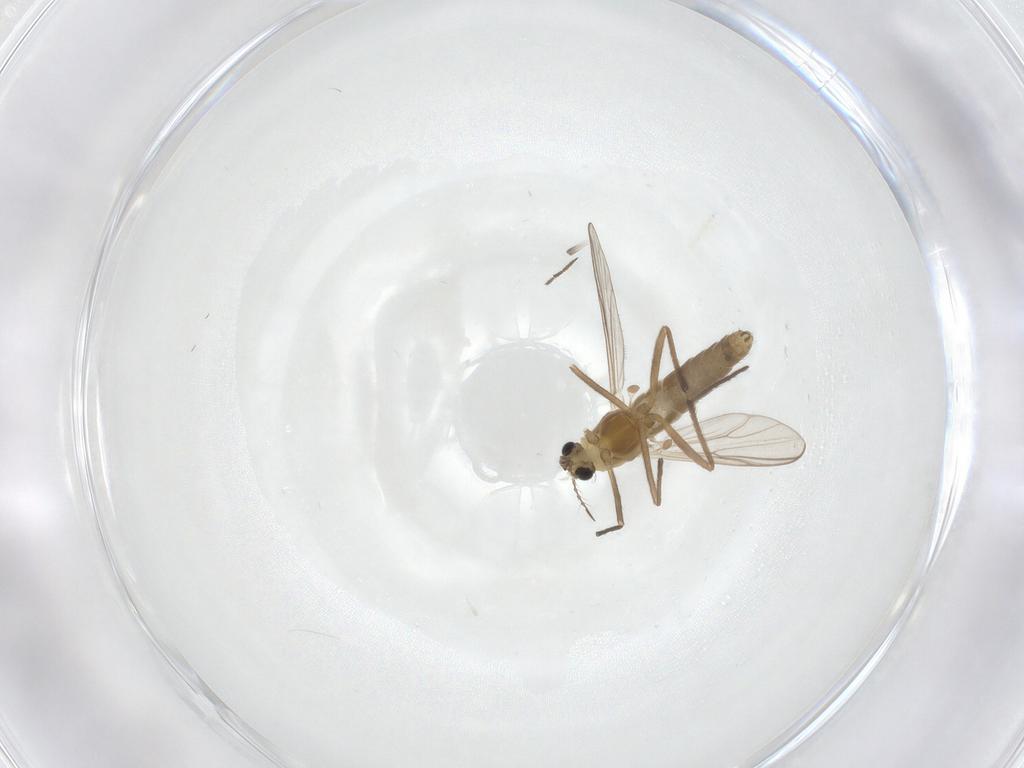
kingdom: Animalia
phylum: Arthropoda
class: Insecta
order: Diptera
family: Chironomidae
